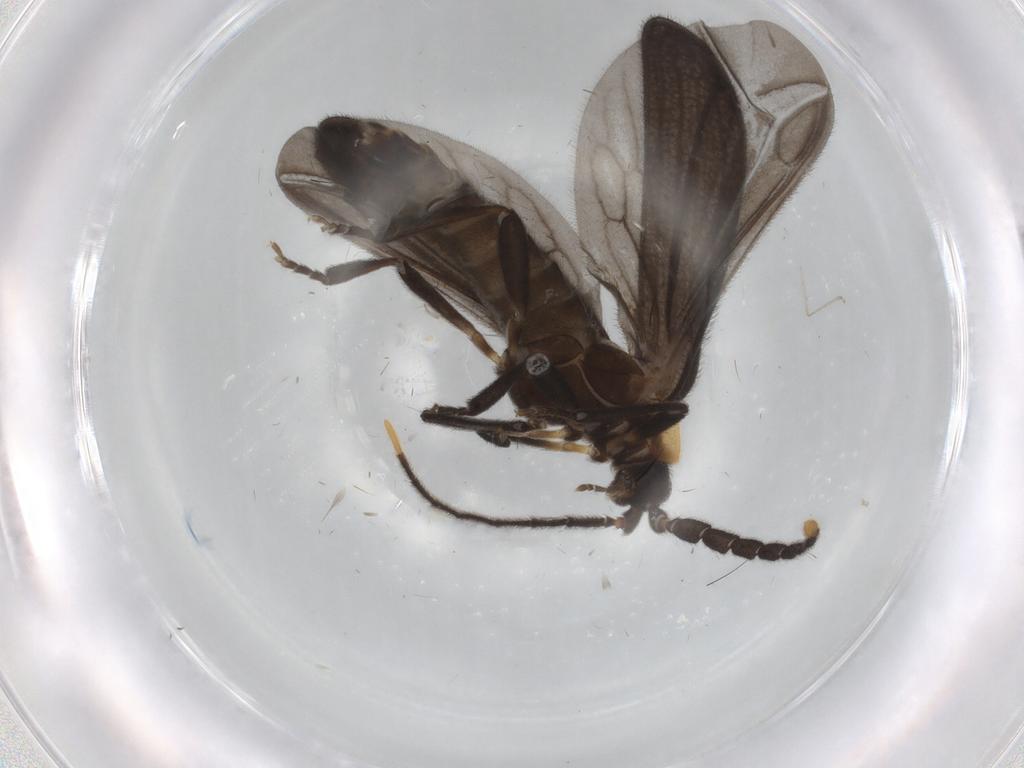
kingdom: Animalia
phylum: Arthropoda
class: Insecta
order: Coleoptera
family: Lycidae
